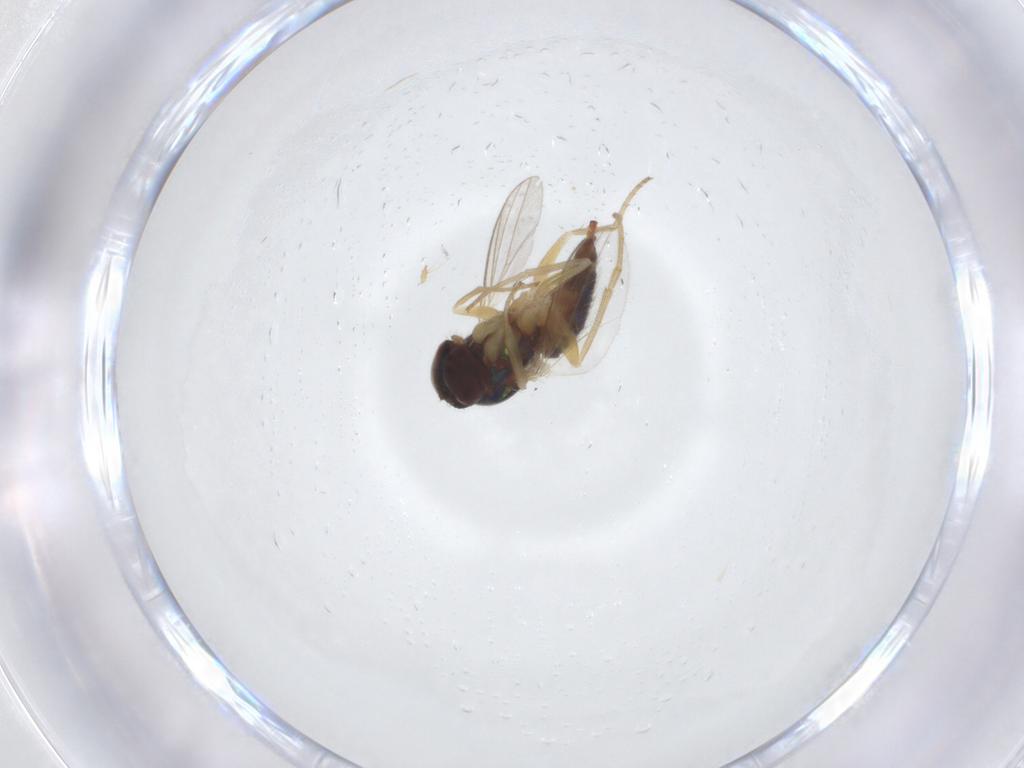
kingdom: Animalia
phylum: Arthropoda
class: Insecta
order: Diptera
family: Dolichopodidae
